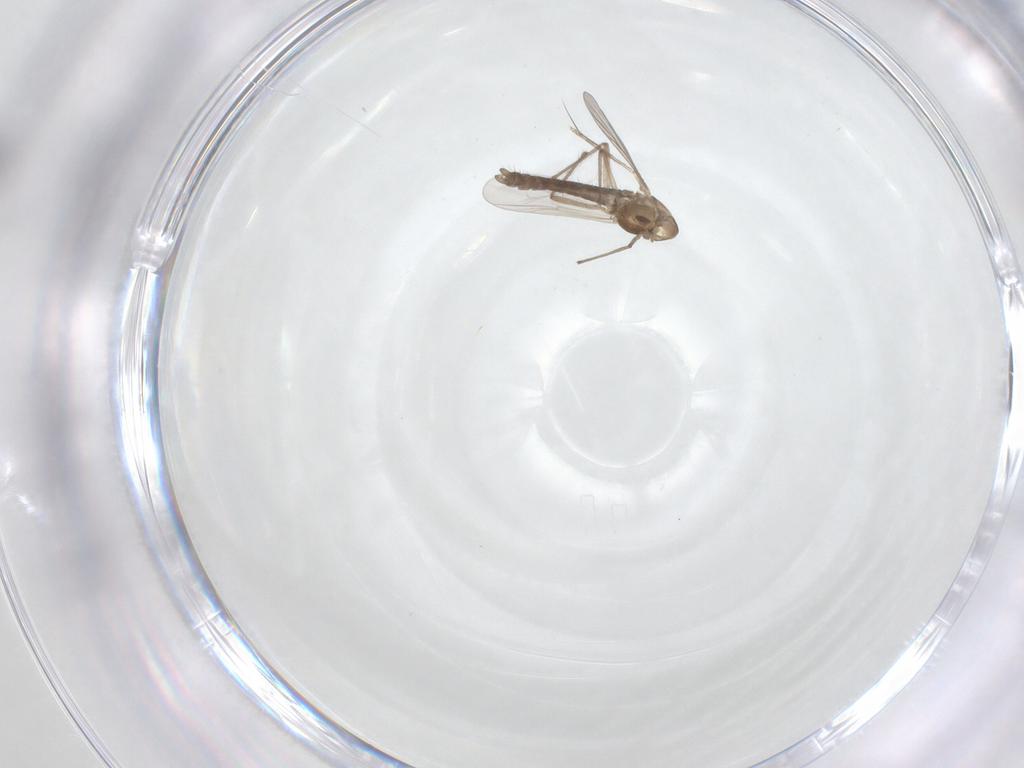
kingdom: Animalia
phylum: Arthropoda
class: Insecta
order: Diptera
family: Chironomidae
